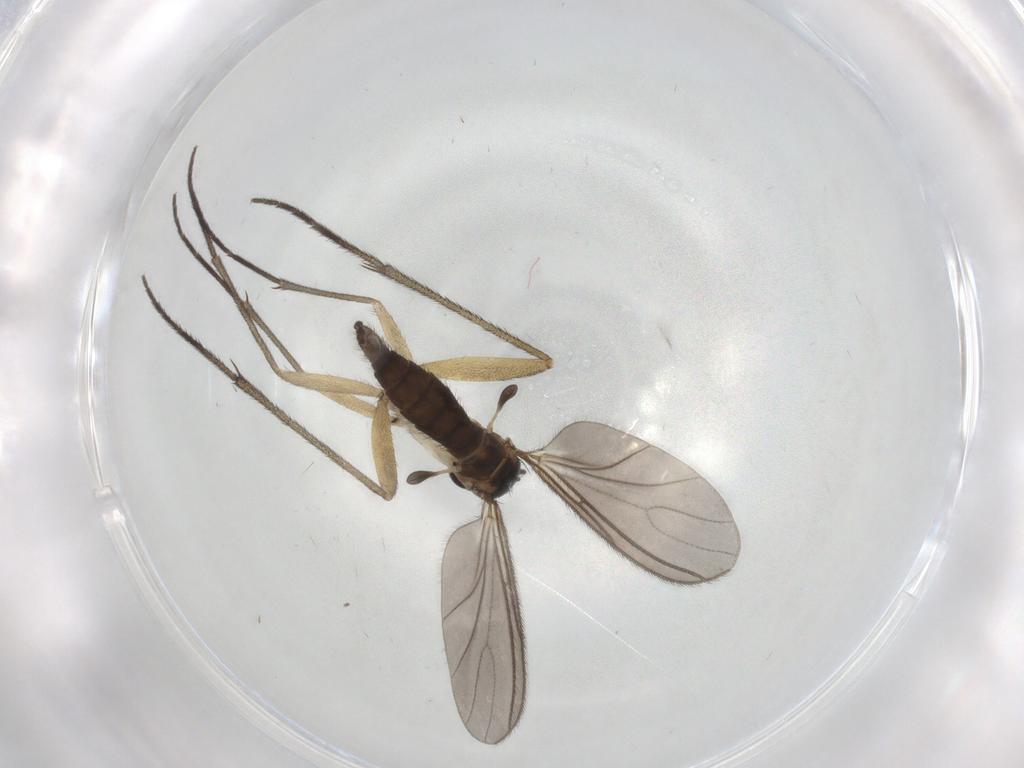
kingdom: Animalia
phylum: Arthropoda
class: Insecta
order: Diptera
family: Sciaridae
